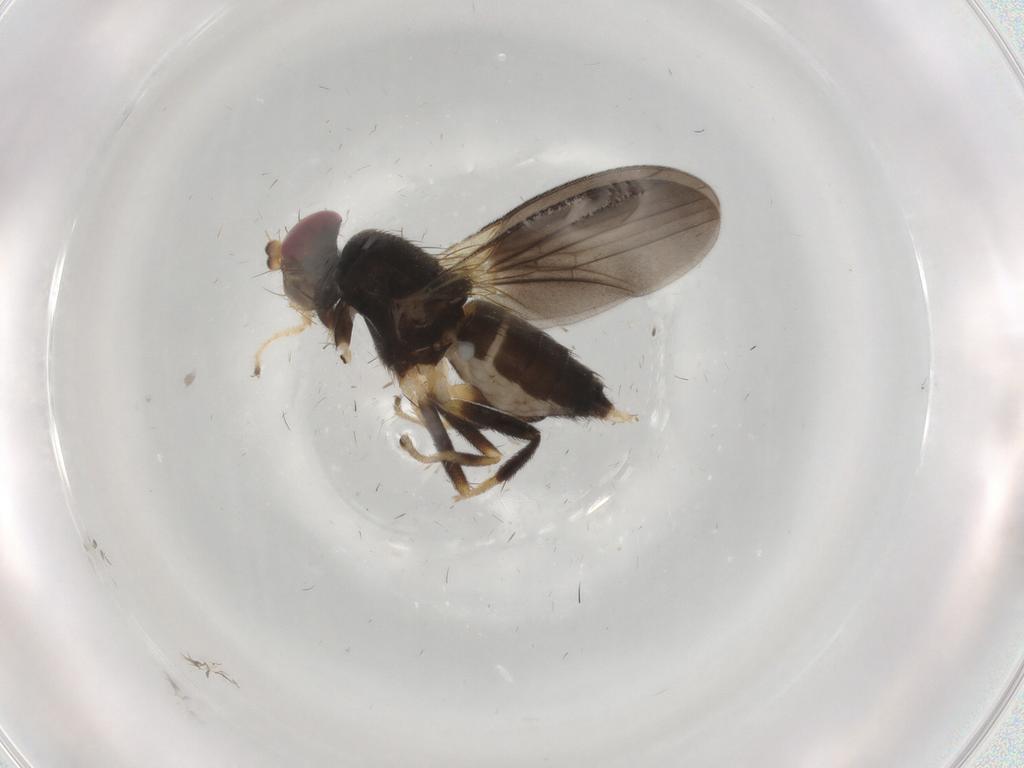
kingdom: Animalia
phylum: Arthropoda
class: Insecta
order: Diptera
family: Clusiidae
